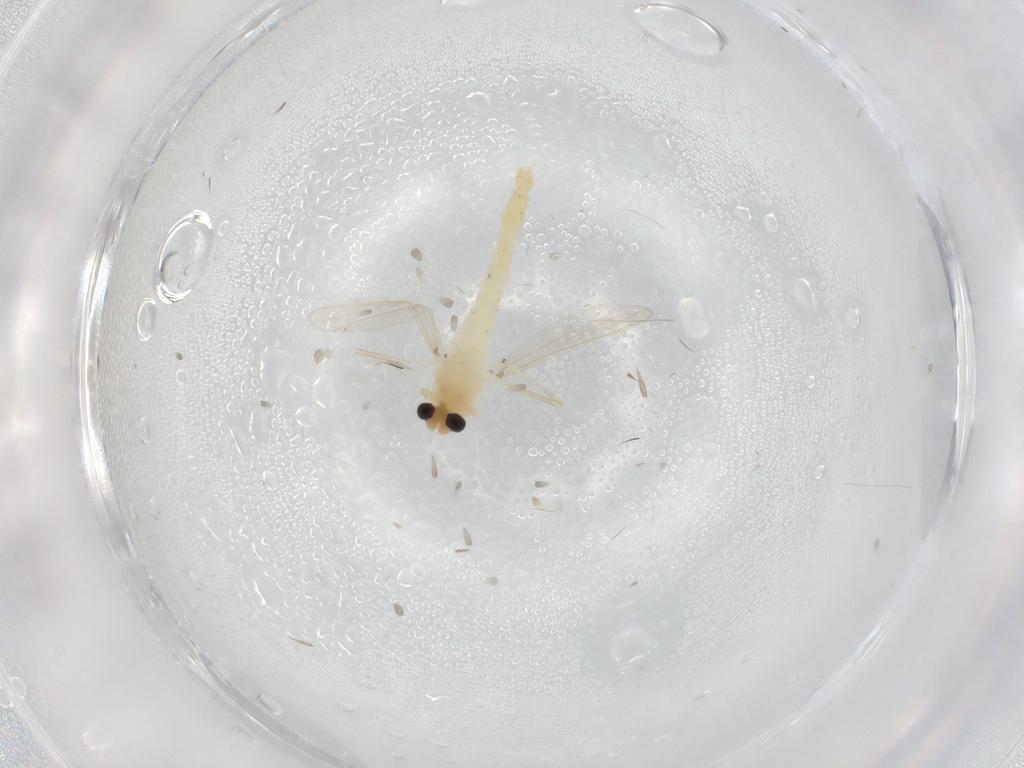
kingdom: Animalia
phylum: Arthropoda
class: Insecta
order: Diptera
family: Chironomidae
